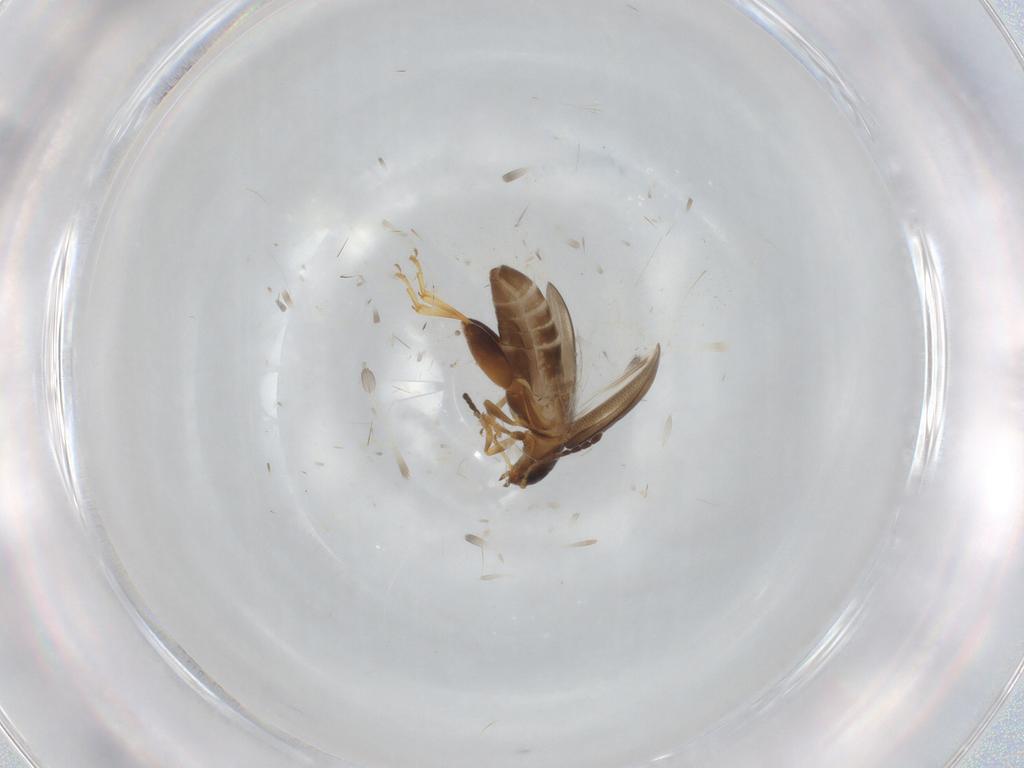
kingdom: Animalia
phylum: Arthropoda
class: Insecta
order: Coleoptera
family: Chrysomelidae
